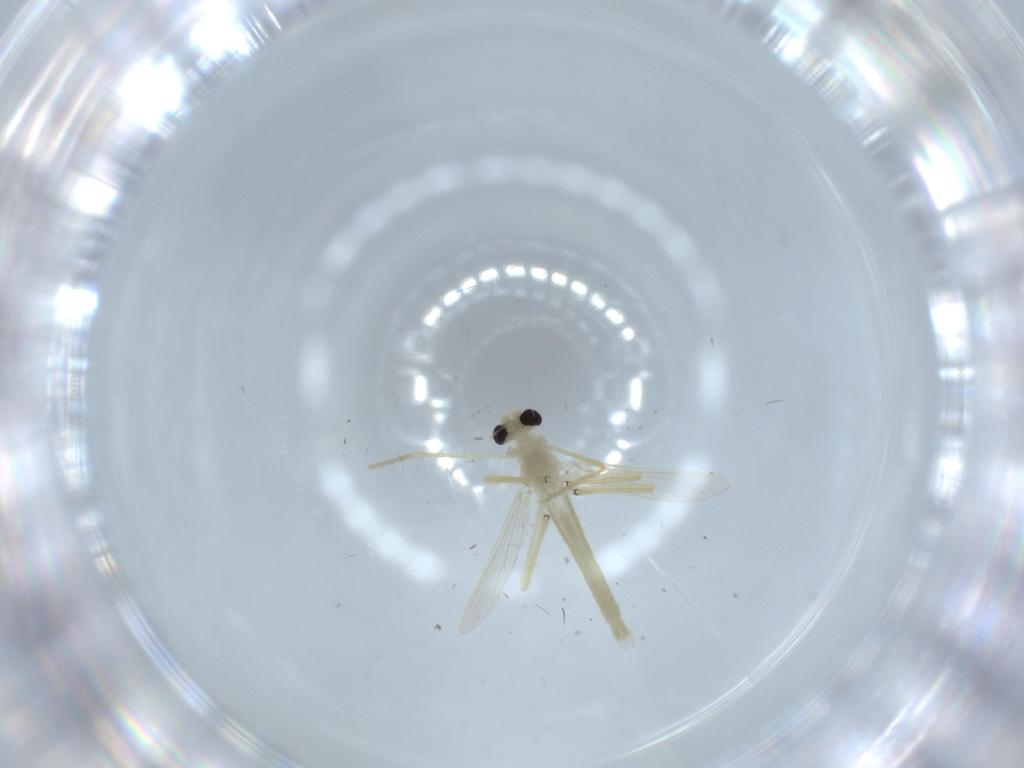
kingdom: Animalia
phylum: Arthropoda
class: Insecta
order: Diptera
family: Chironomidae
